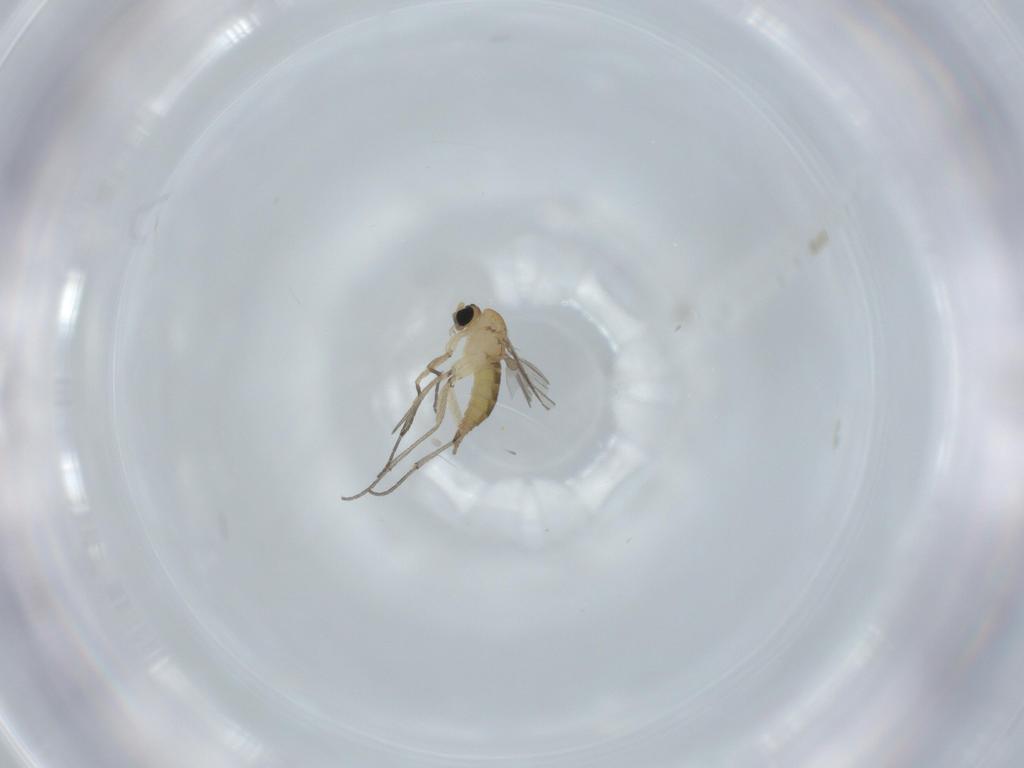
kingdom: Animalia
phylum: Arthropoda
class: Insecta
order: Diptera
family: Sciaridae
